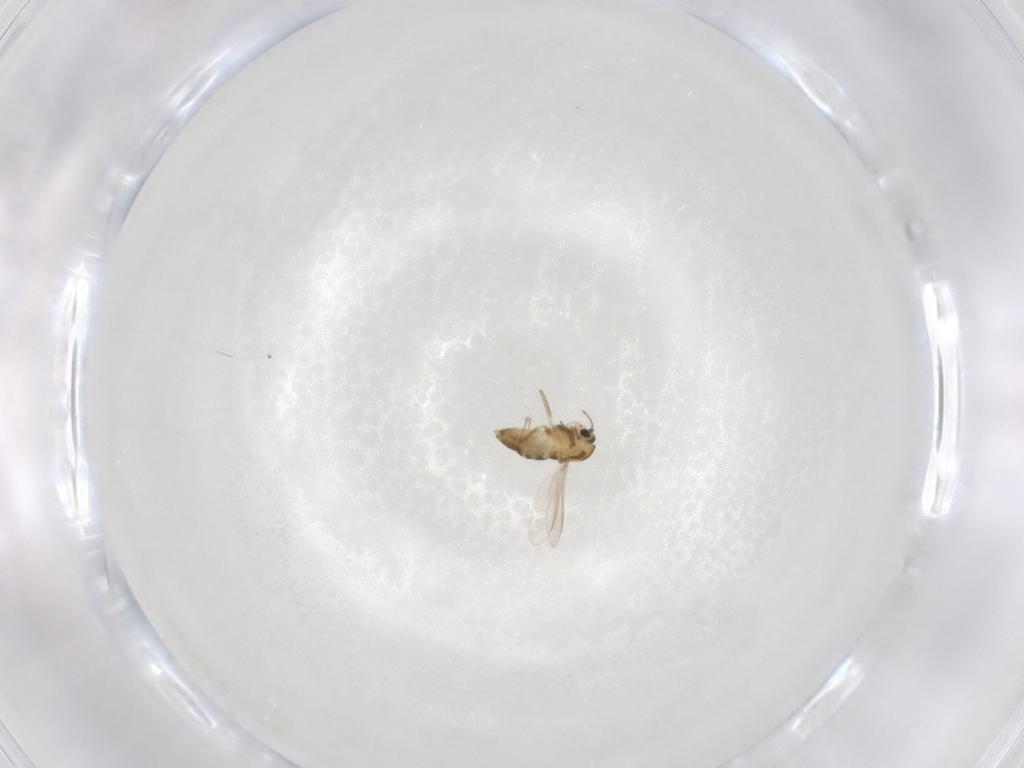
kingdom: Animalia
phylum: Arthropoda
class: Insecta
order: Diptera
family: Chironomidae
